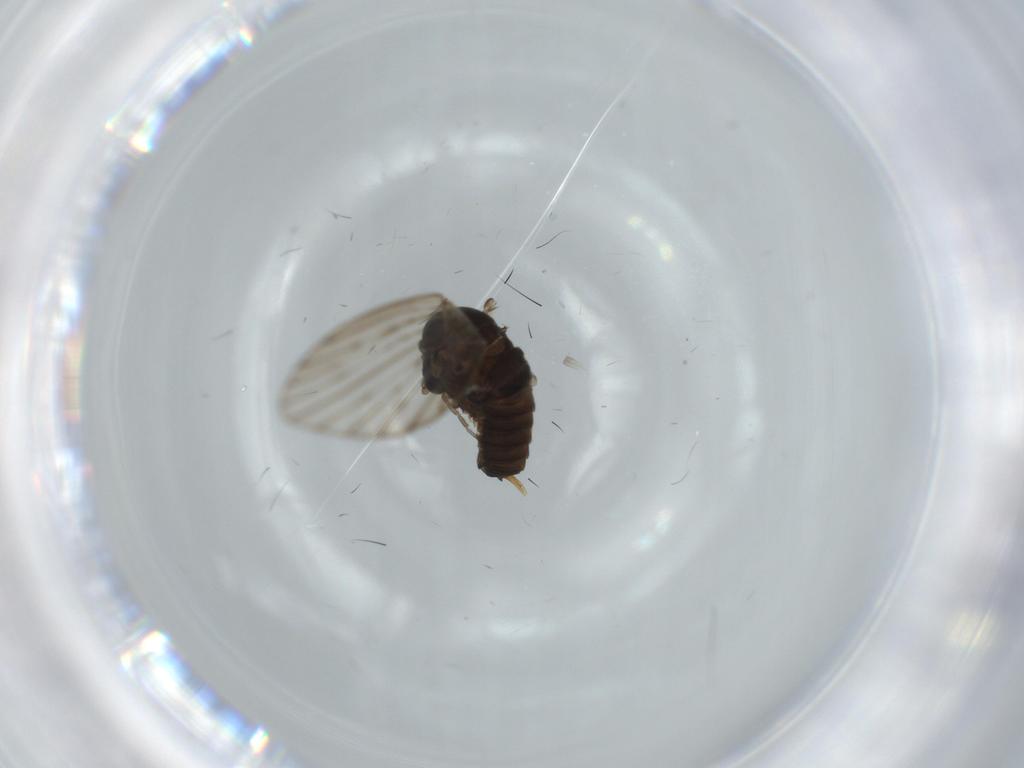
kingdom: Animalia
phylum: Arthropoda
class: Insecta
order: Diptera
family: Psychodidae
